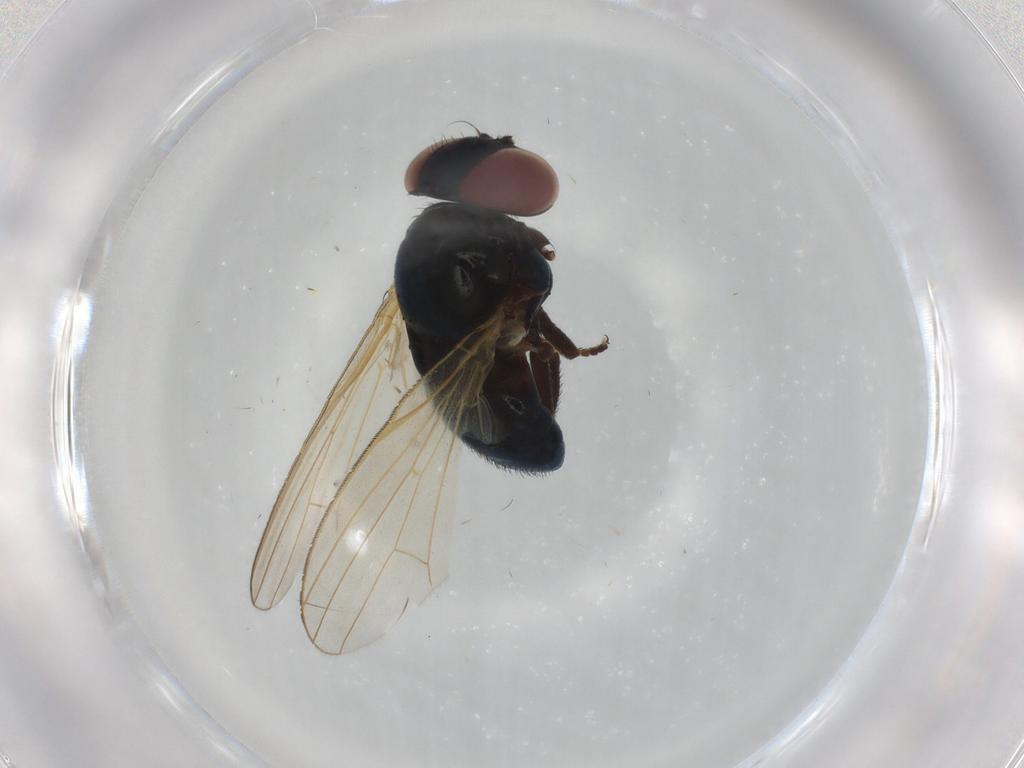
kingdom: Animalia
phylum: Arthropoda
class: Insecta
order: Diptera
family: Lonchaeidae
